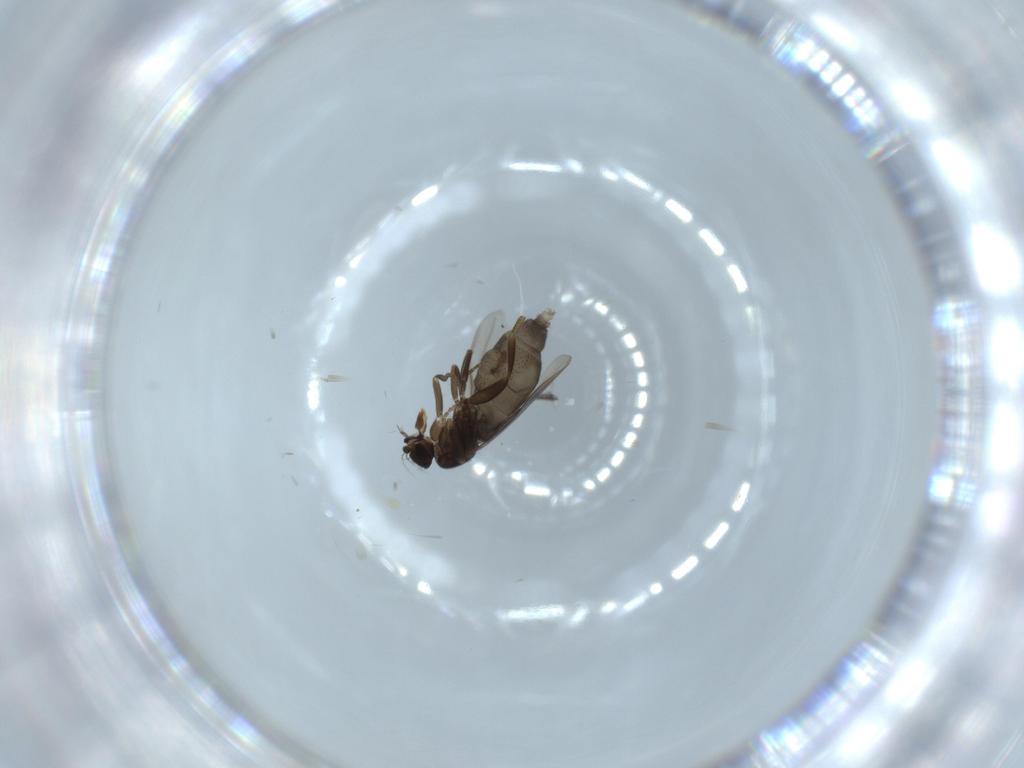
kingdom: Animalia
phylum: Arthropoda
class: Insecta
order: Diptera
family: Phoridae
